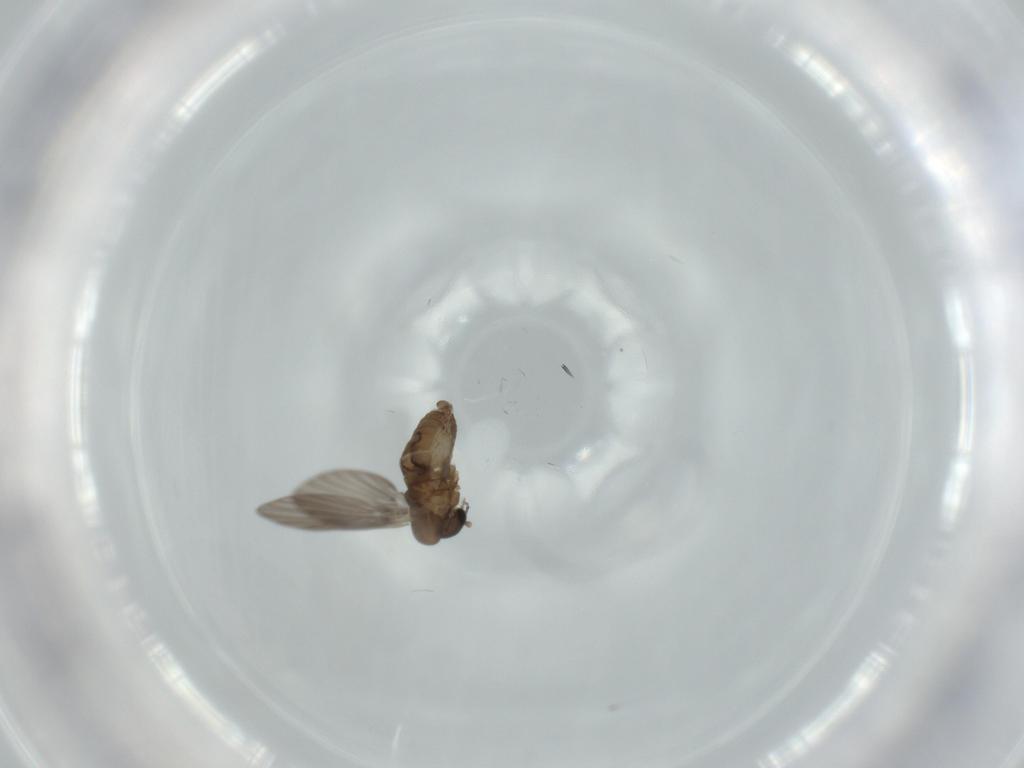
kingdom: Animalia
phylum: Arthropoda
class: Insecta
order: Diptera
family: Psychodidae
